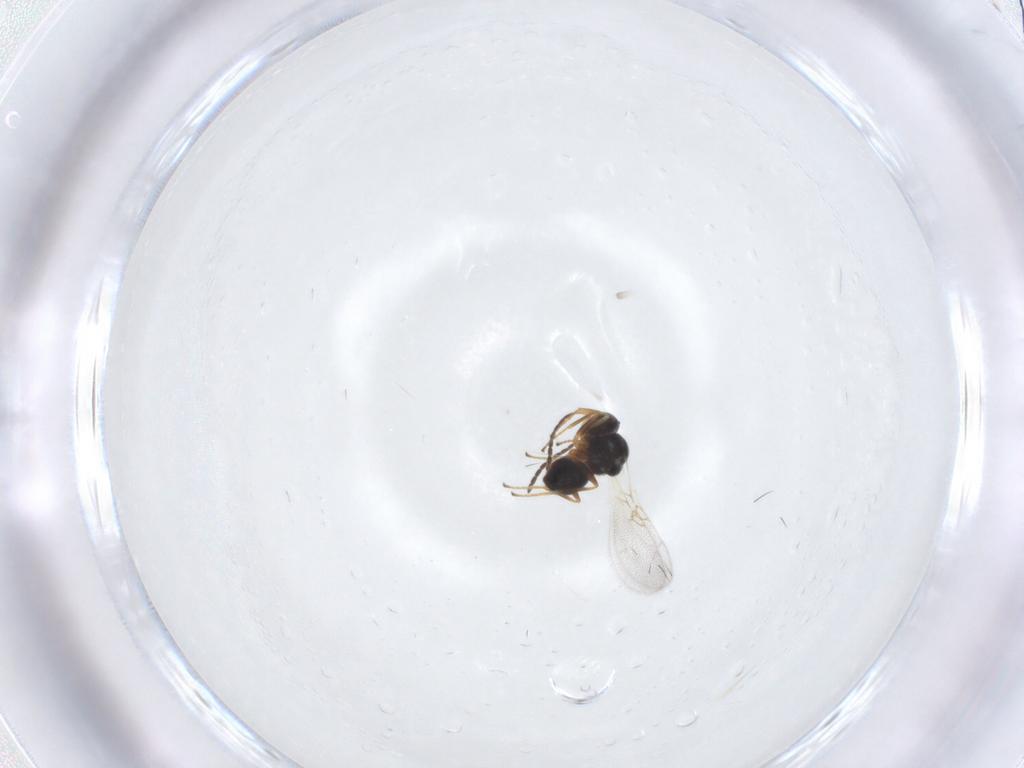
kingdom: Animalia
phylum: Arthropoda
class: Insecta
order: Hymenoptera
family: Figitidae
